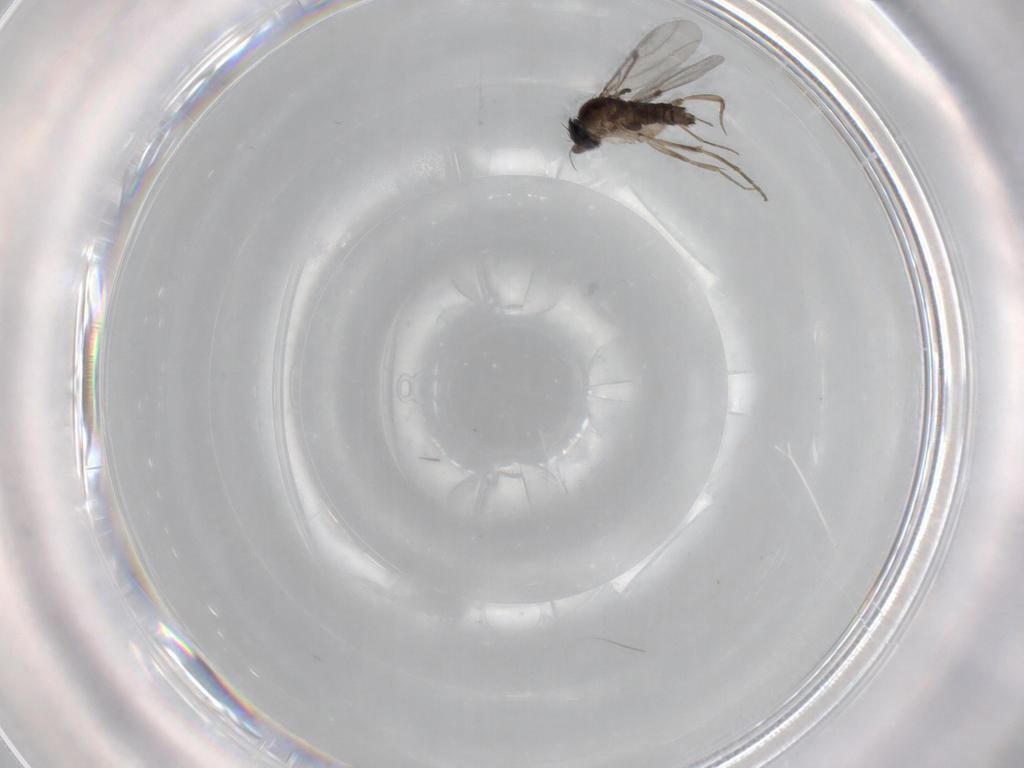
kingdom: Animalia
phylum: Arthropoda
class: Insecta
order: Diptera
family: Phoridae
